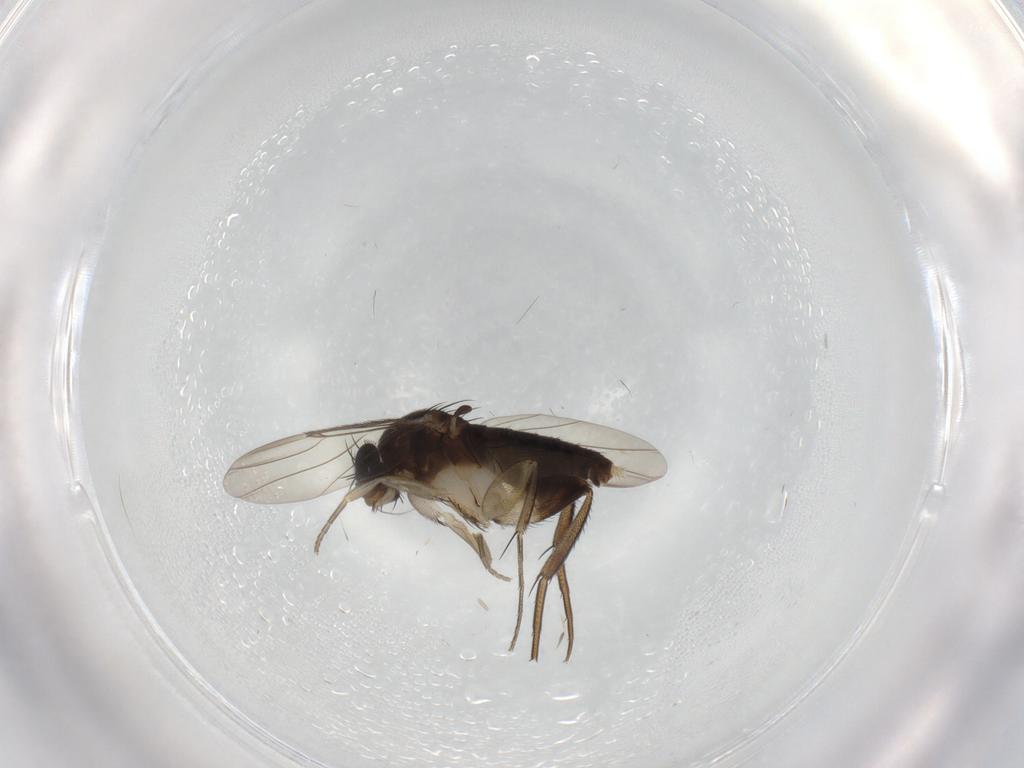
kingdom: Animalia
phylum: Arthropoda
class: Insecta
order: Diptera
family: Phoridae
